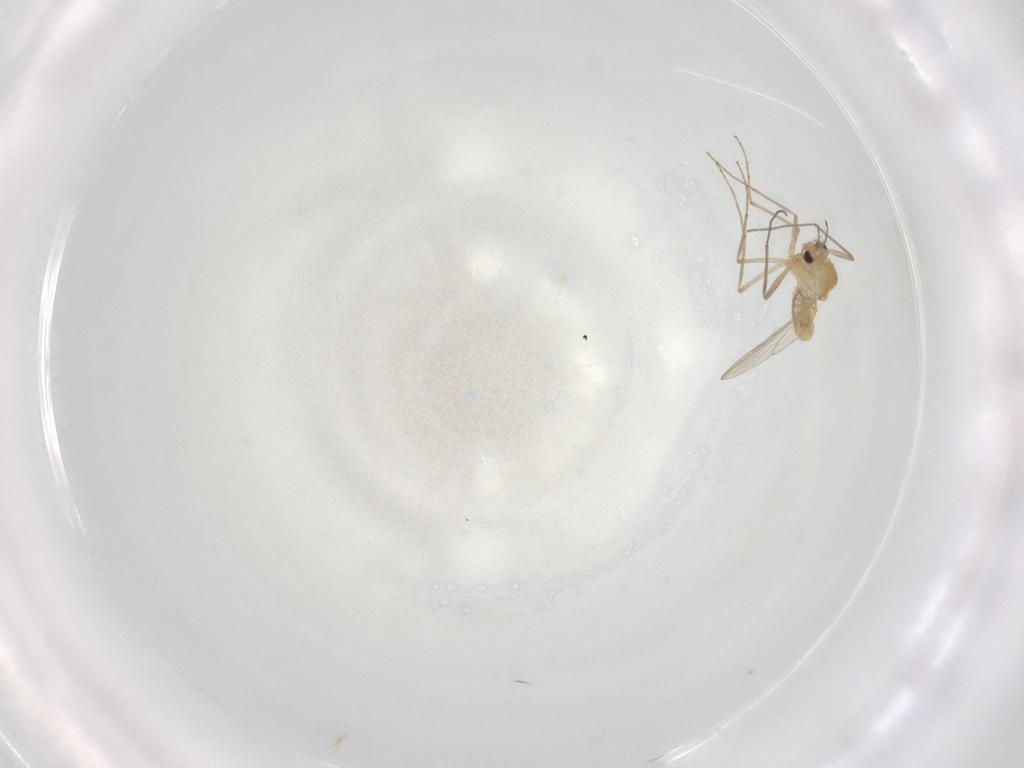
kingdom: Animalia
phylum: Arthropoda
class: Insecta
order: Diptera
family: Chironomidae
